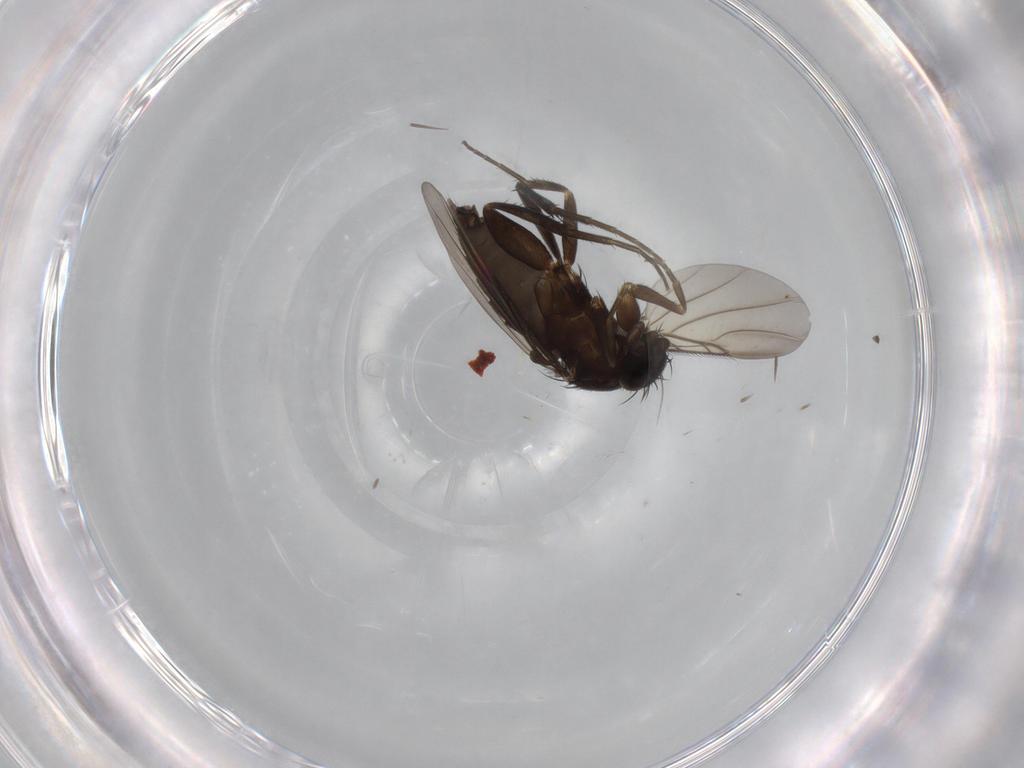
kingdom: Animalia
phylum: Arthropoda
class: Insecta
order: Diptera
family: Phoridae
